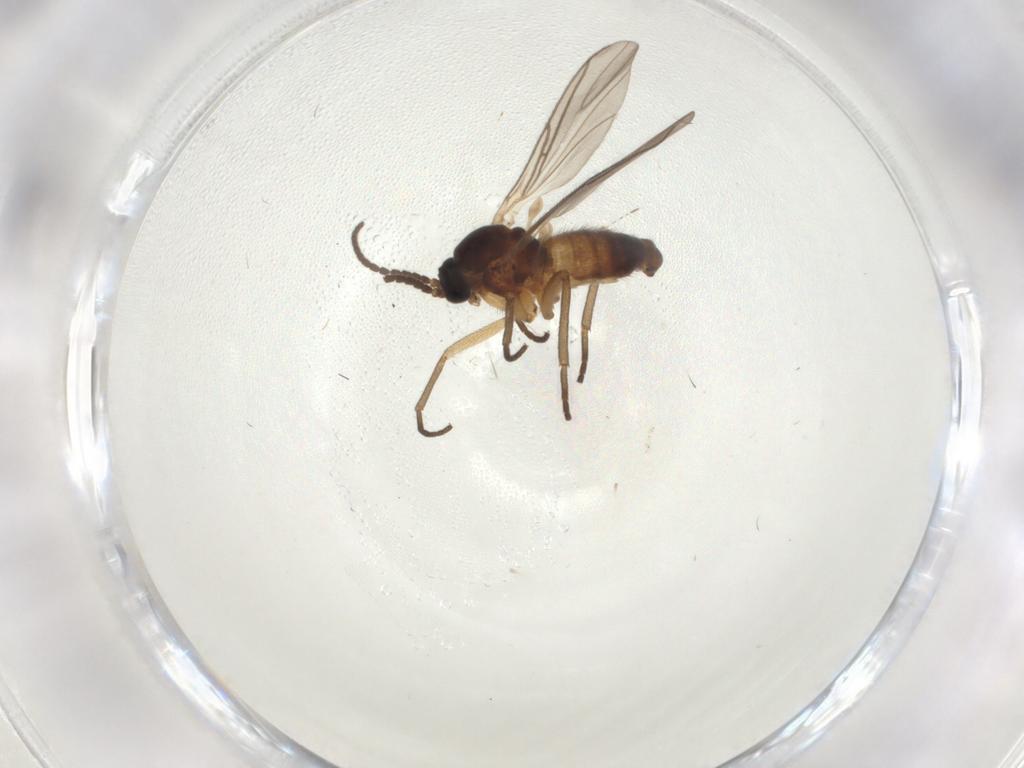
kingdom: Animalia
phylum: Arthropoda
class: Insecta
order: Diptera
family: Sciaridae
